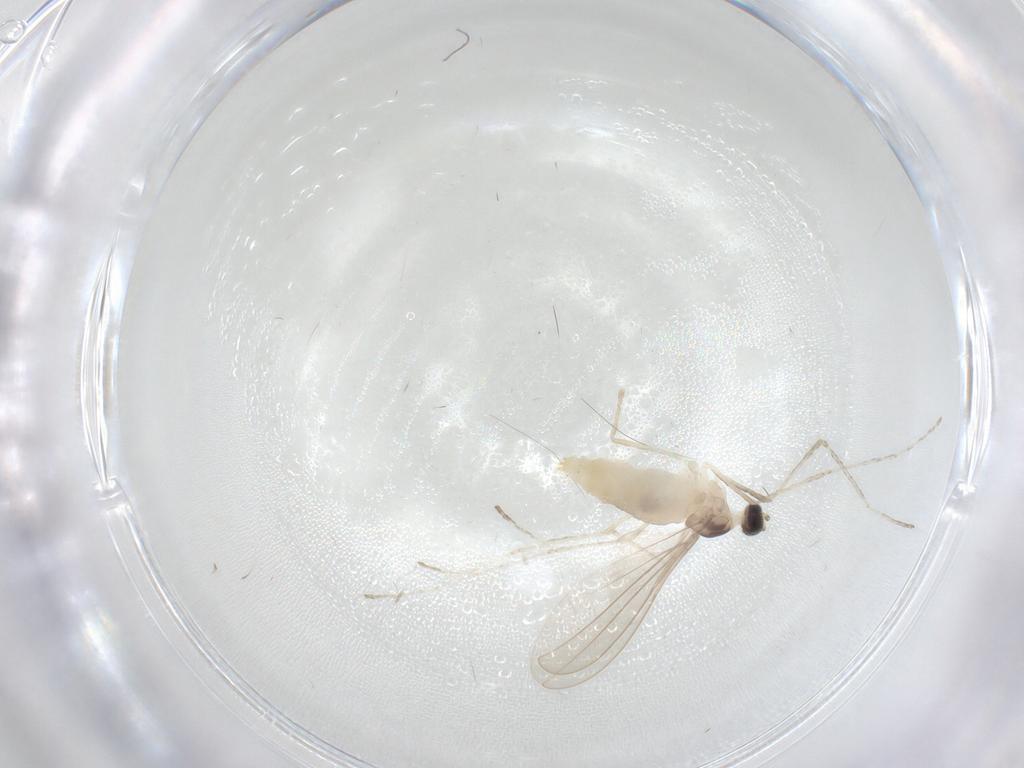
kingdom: Animalia
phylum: Arthropoda
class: Insecta
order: Diptera
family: Cecidomyiidae
